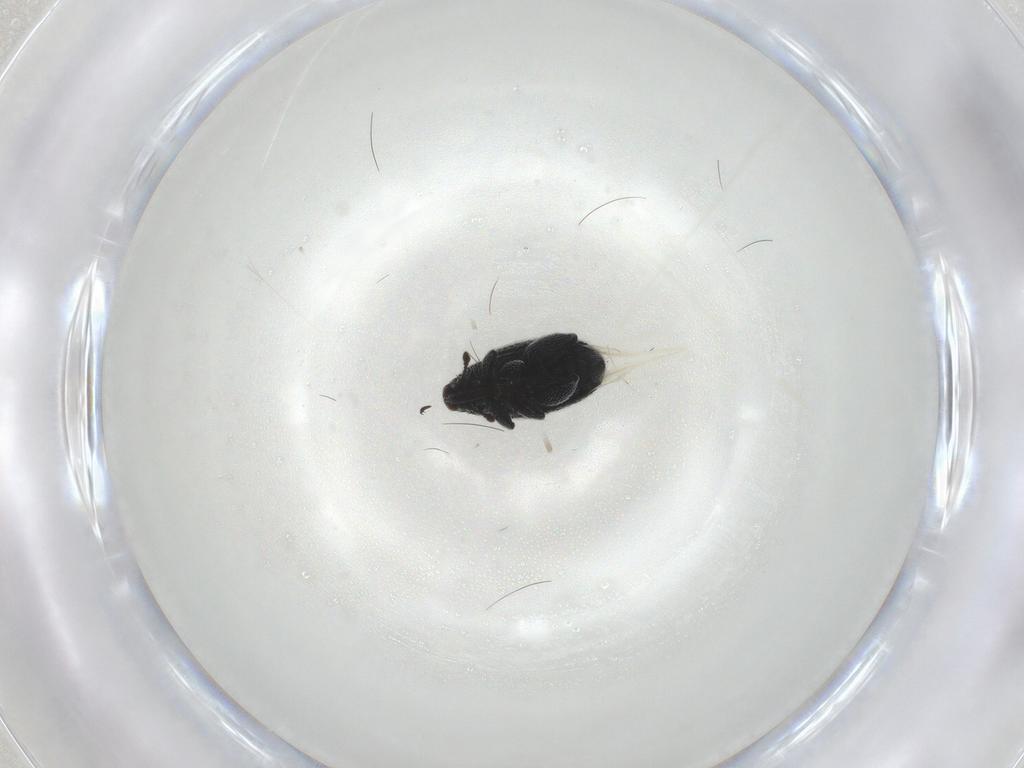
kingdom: Animalia
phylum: Arthropoda
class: Insecta
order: Coleoptera
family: Curculionidae
